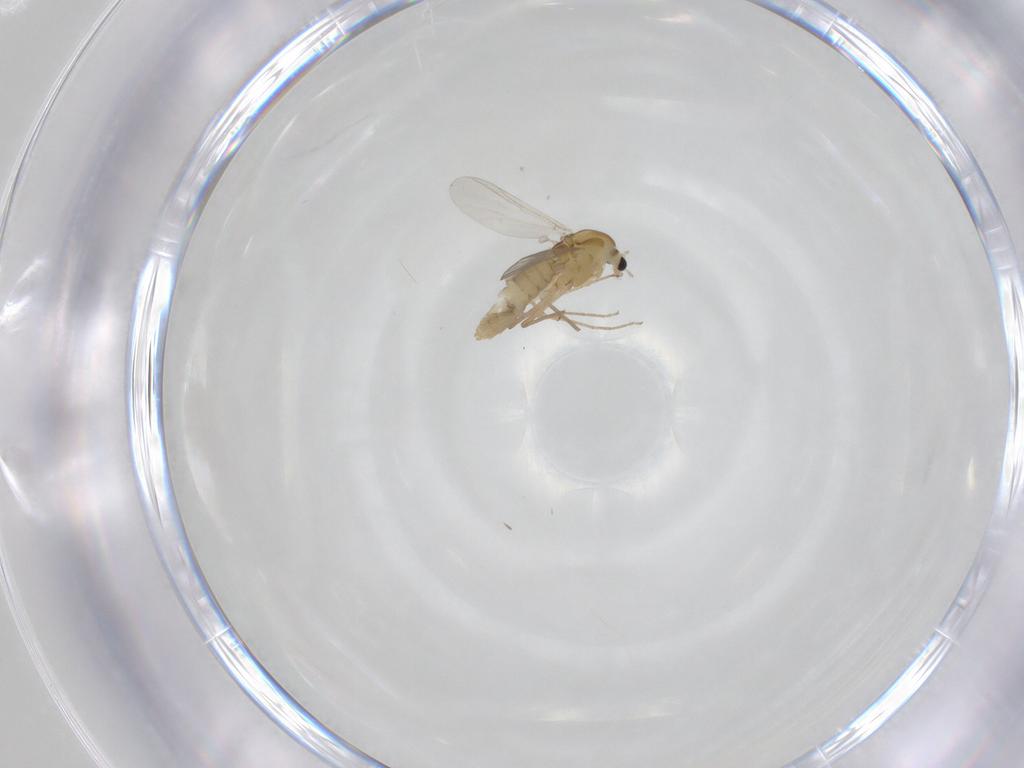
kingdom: Animalia
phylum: Arthropoda
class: Insecta
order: Diptera
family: Chironomidae
